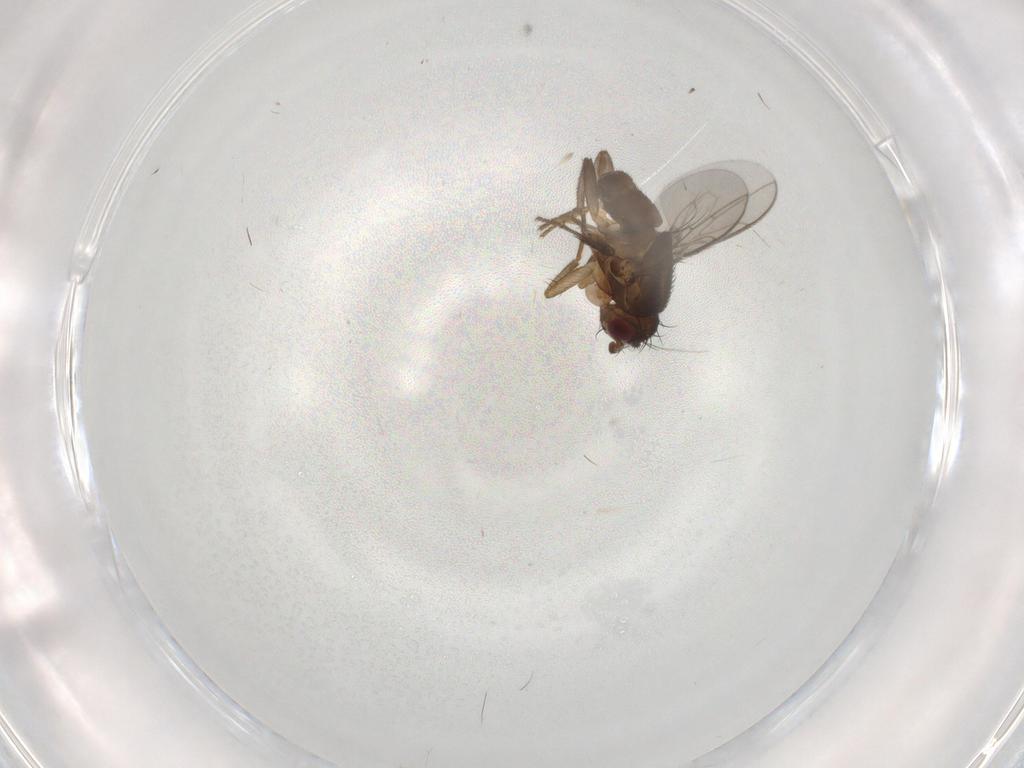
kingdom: Animalia
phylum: Arthropoda
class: Insecta
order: Diptera
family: Sphaeroceridae
